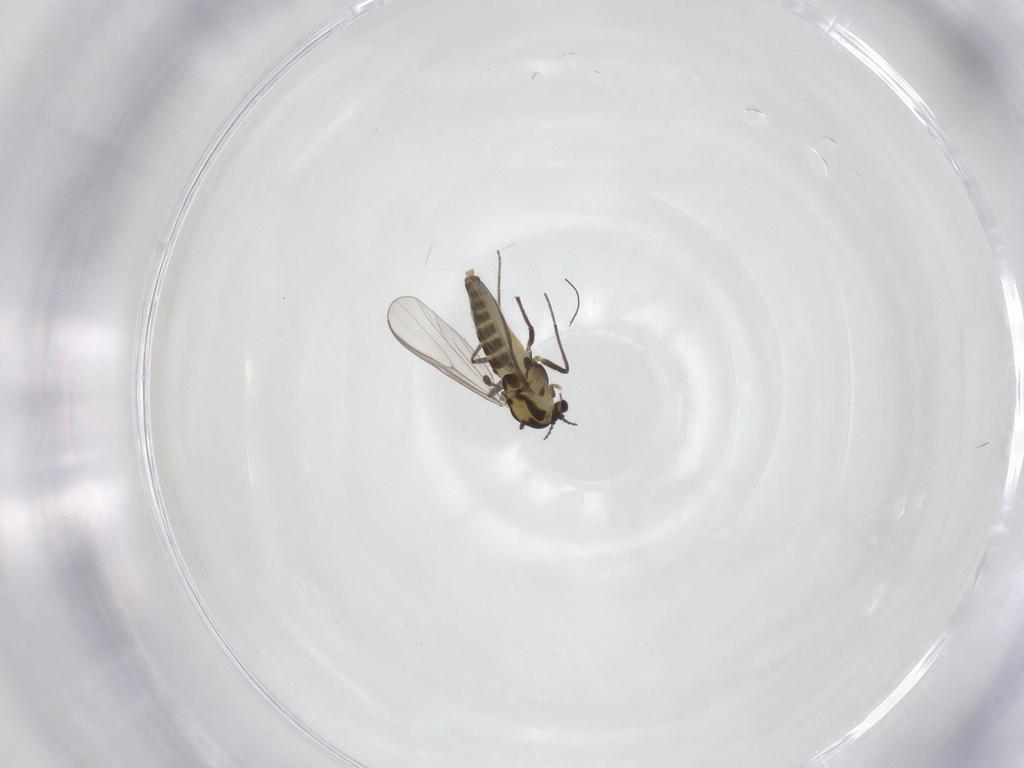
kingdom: Animalia
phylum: Arthropoda
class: Insecta
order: Diptera
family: Chironomidae
